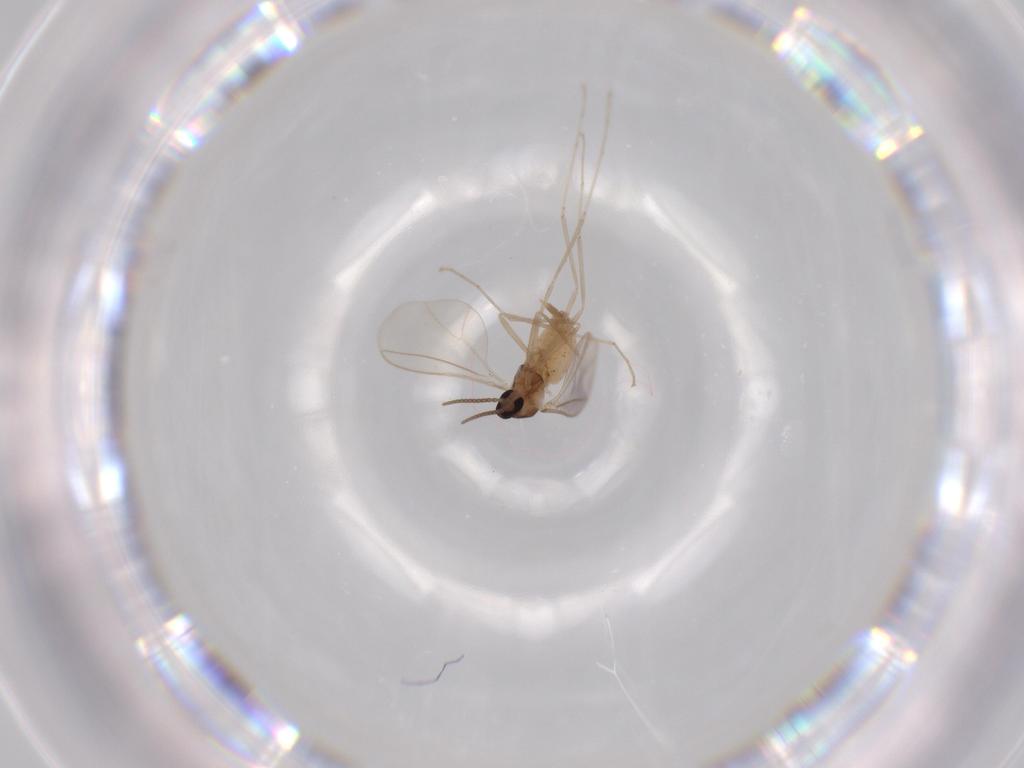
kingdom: Animalia
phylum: Arthropoda
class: Insecta
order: Diptera
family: Cecidomyiidae
